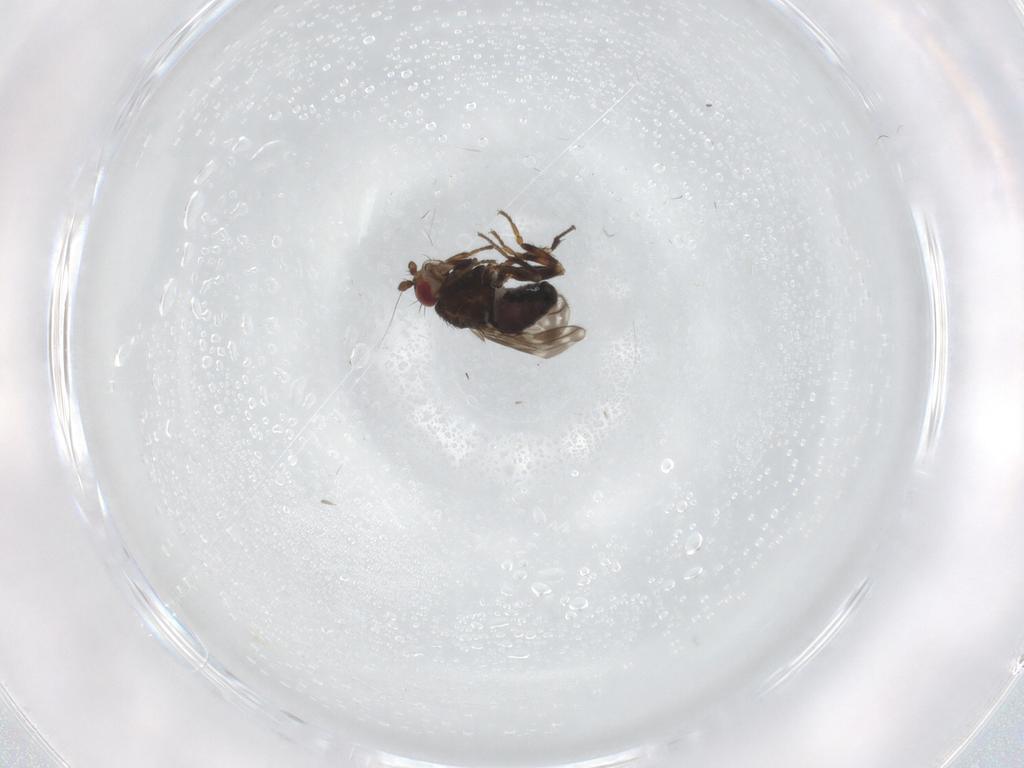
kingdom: Animalia
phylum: Arthropoda
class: Insecta
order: Diptera
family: Sphaeroceridae
